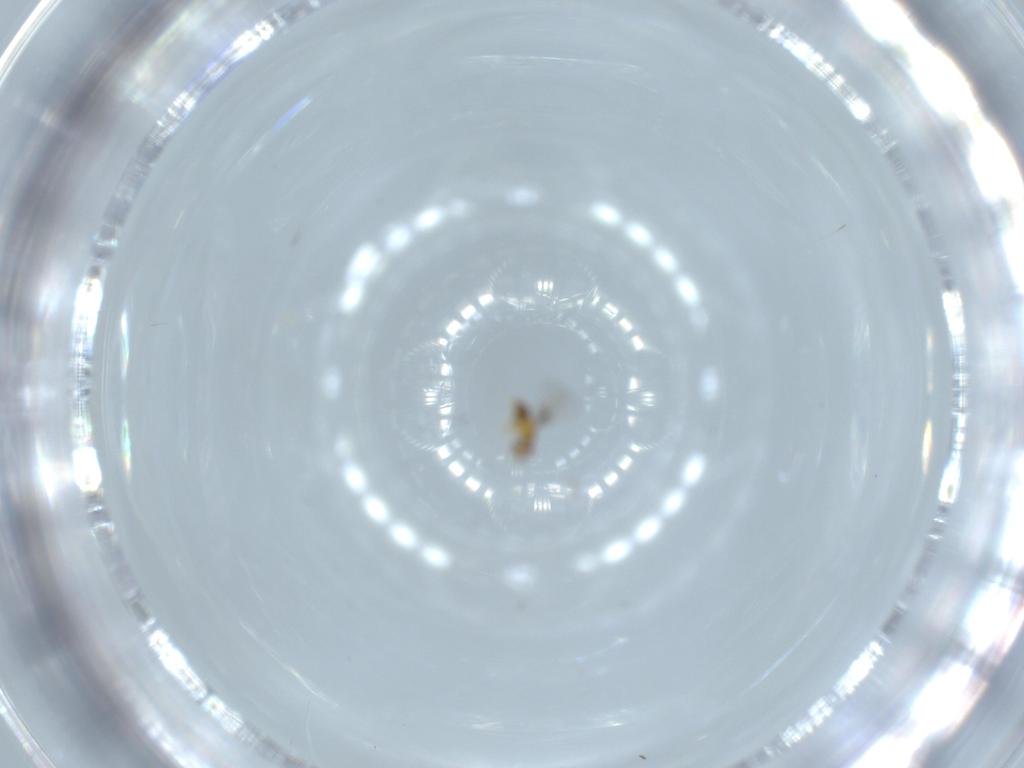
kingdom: Animalia
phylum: Arthropoda
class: Insecta
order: Hymenoptera
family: Trichogrammatidae
